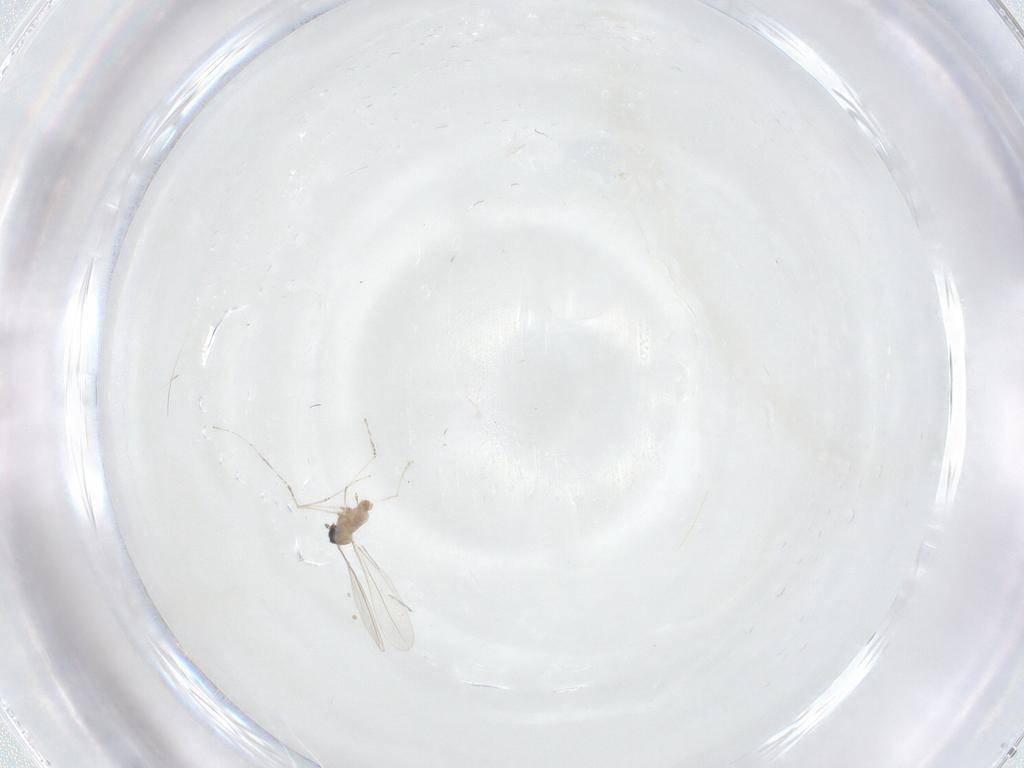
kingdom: Animalia
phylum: Arthropoda
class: Insecta
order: Diptera
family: Cecidomyiidae
